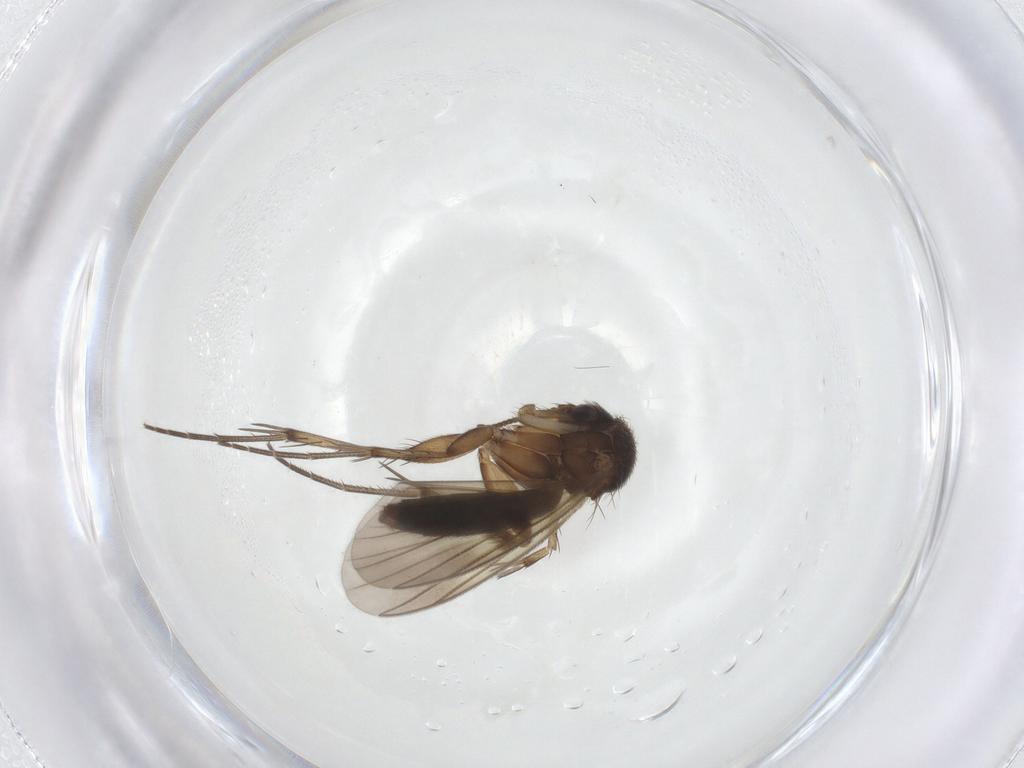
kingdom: Animalia
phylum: Arthropoda
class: Insecta
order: Diptera
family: Mycetophilidae
